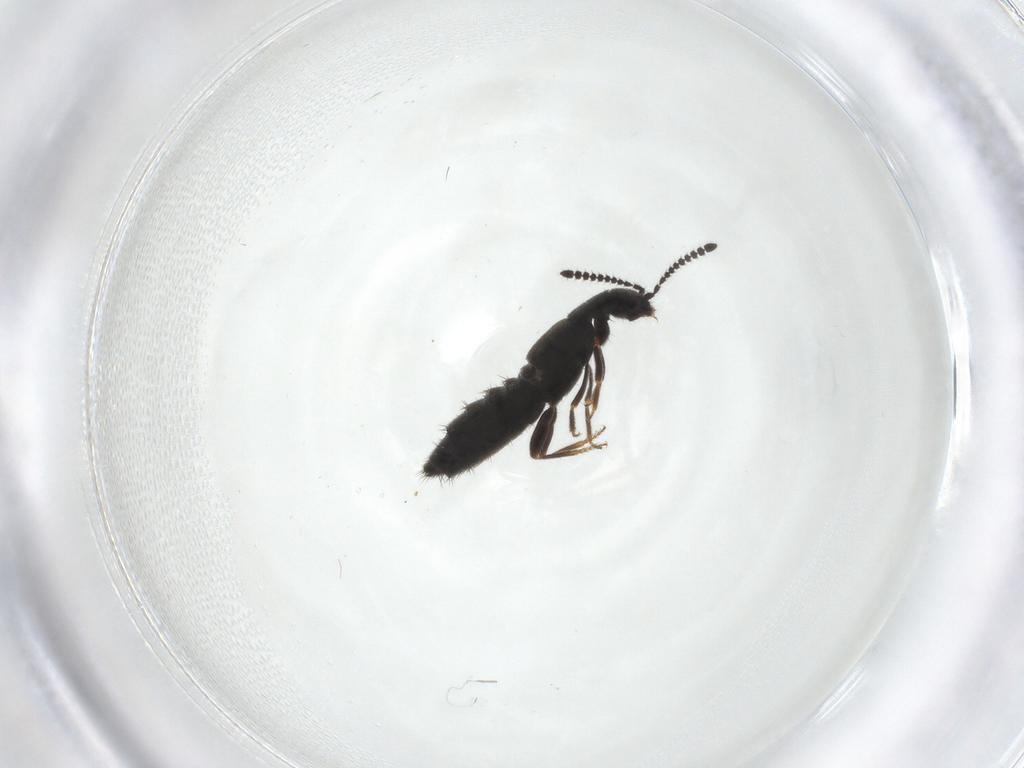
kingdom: Animalia
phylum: Arthropoda
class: Insecta
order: Coleoptera
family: Staphylinidae
